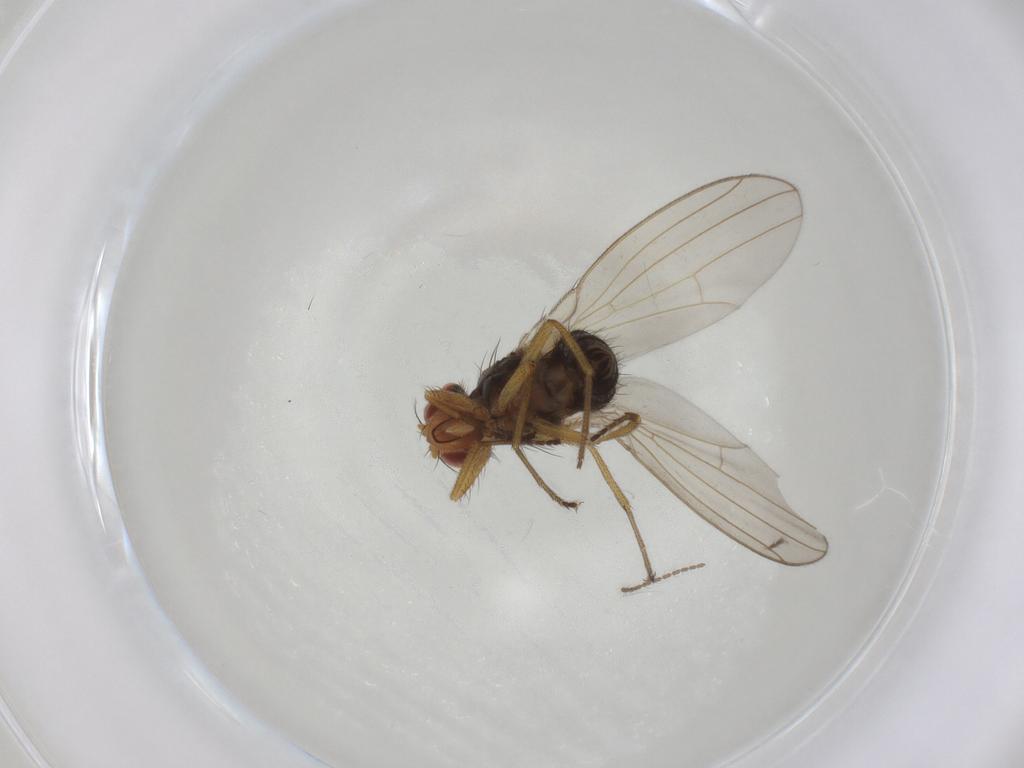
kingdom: Animalia
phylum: Arthropoda
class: Insecta
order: Diptera
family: Drosophilidae
